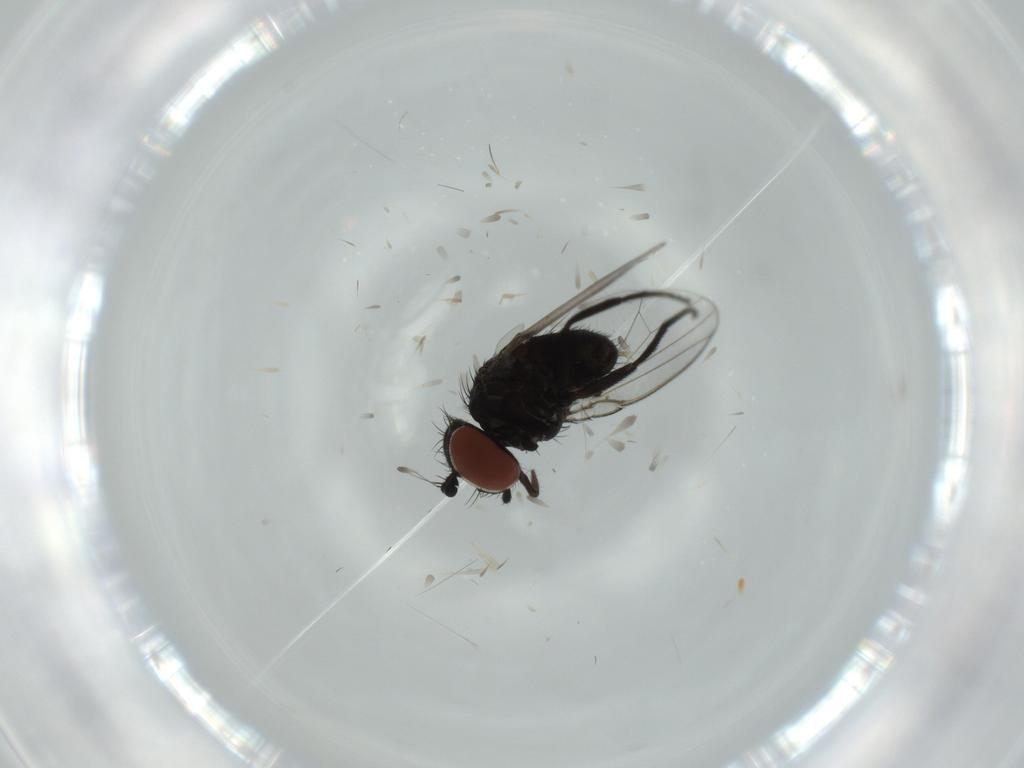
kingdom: Animalia
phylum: Arthropoda
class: Insecta
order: Diptera
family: Milichiidae
